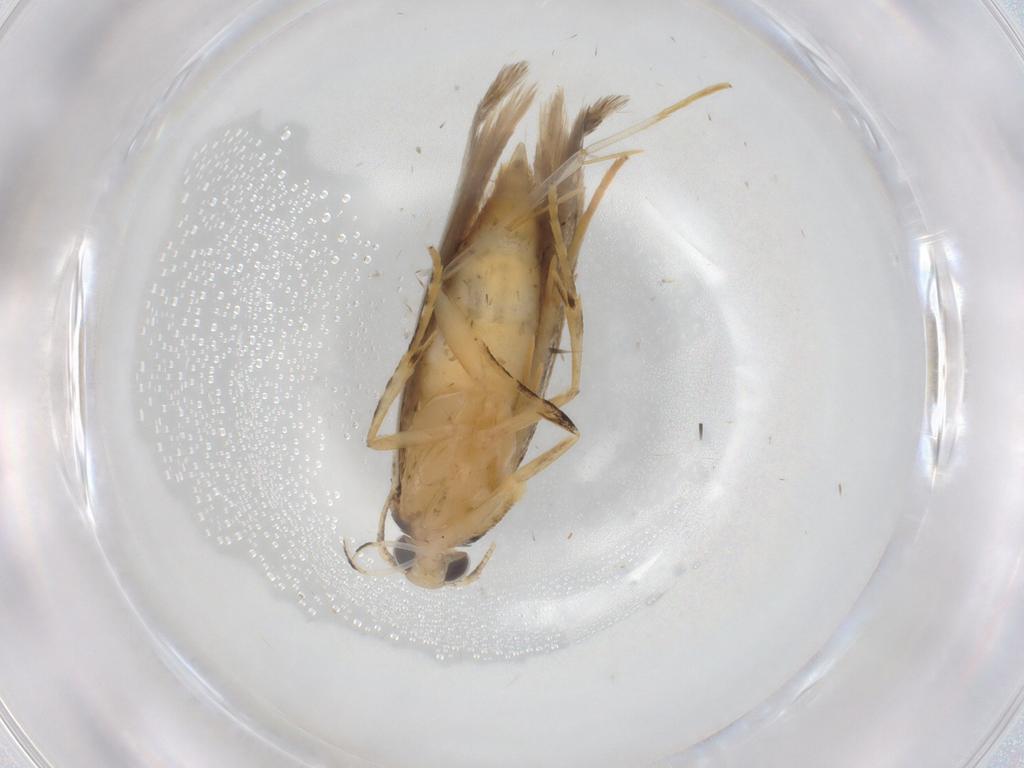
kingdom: Animalia
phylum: Arthropoda
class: Insecta
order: Lepidoptera
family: Autostichidae
